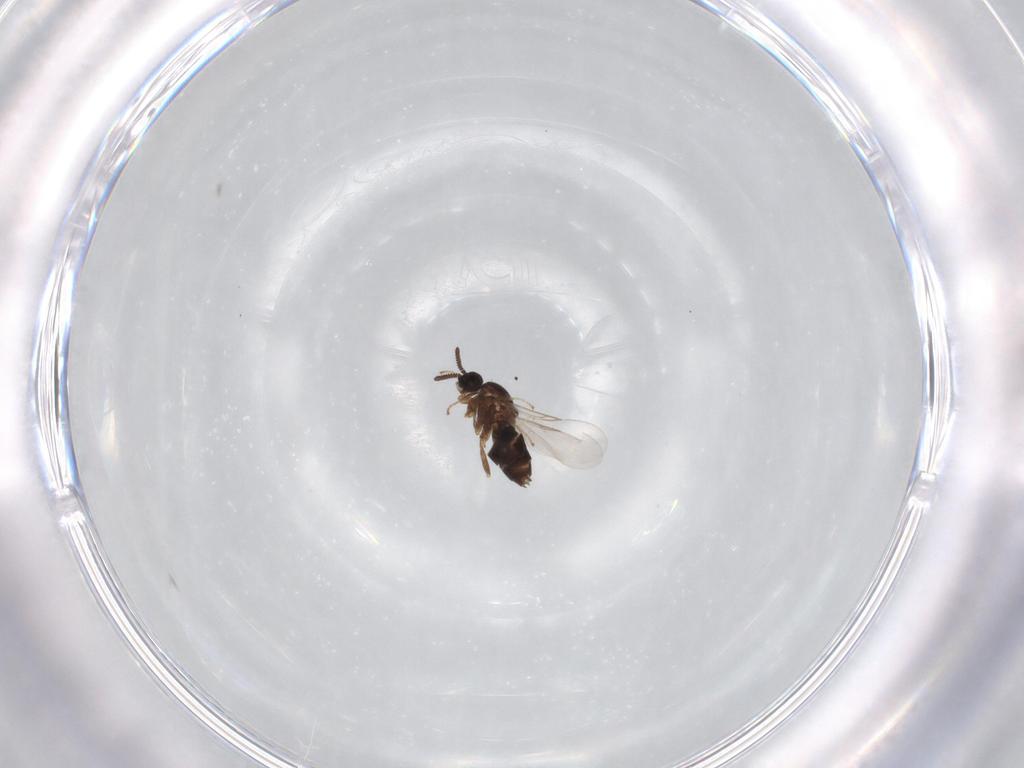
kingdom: Animalia
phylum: Arthropoda
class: Insecta
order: Diptera
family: Scatopsidae
